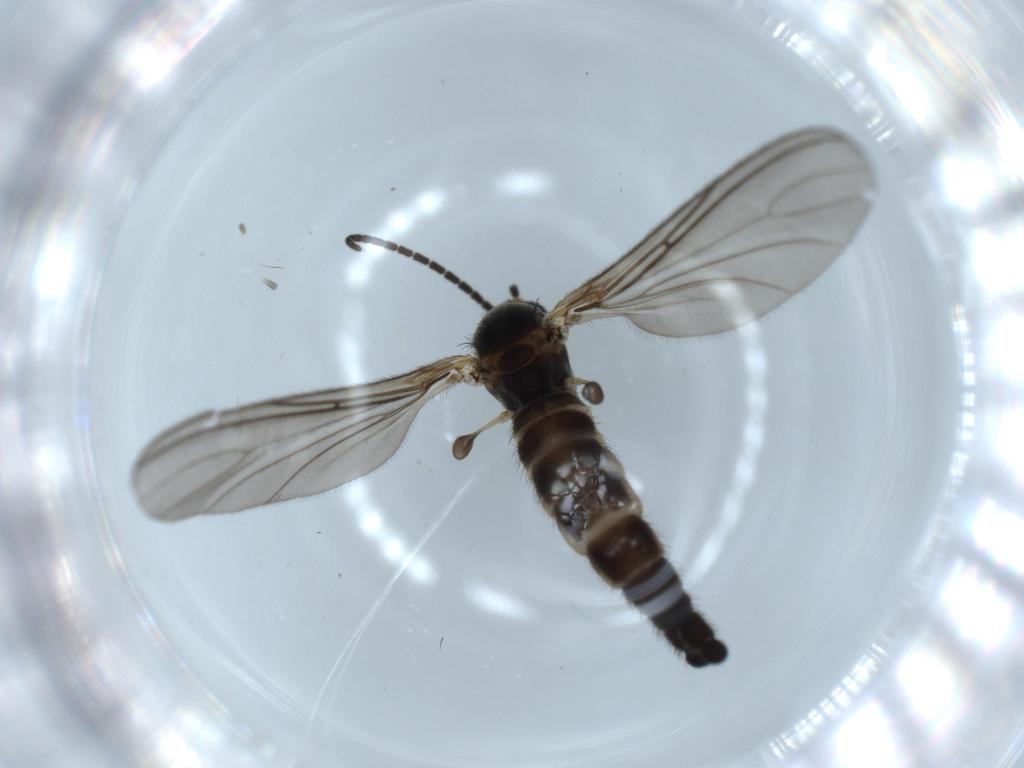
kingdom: Animalia
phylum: Arthropoda
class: Insecta
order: Diptera
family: Sciaridae
